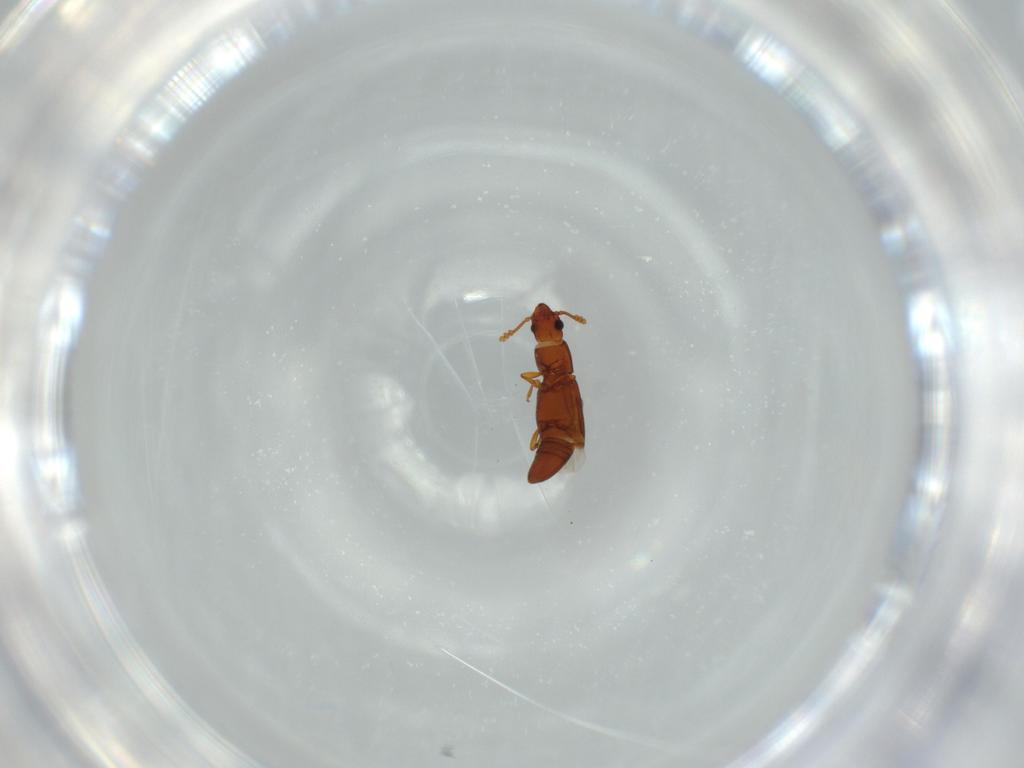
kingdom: Animalia
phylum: Arthropoda
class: Insecta
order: Coleoptera
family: Smicripidae
